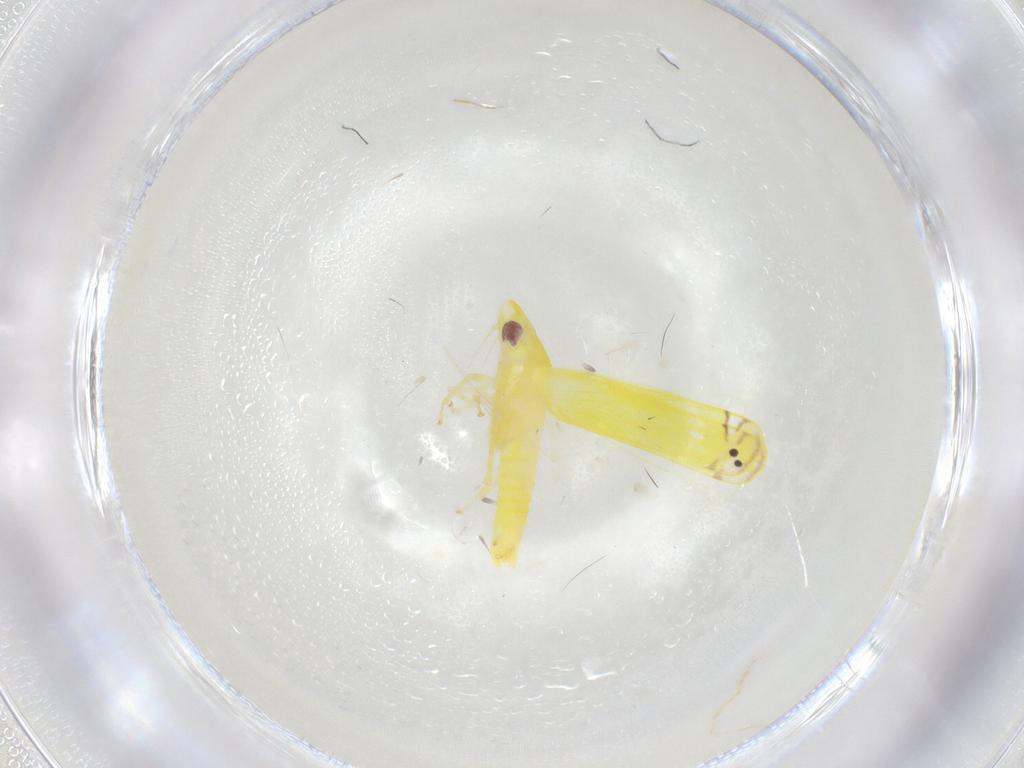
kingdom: Animalia
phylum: Arthropoda
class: Insecta
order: Hemiptera
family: Cicadellidae
